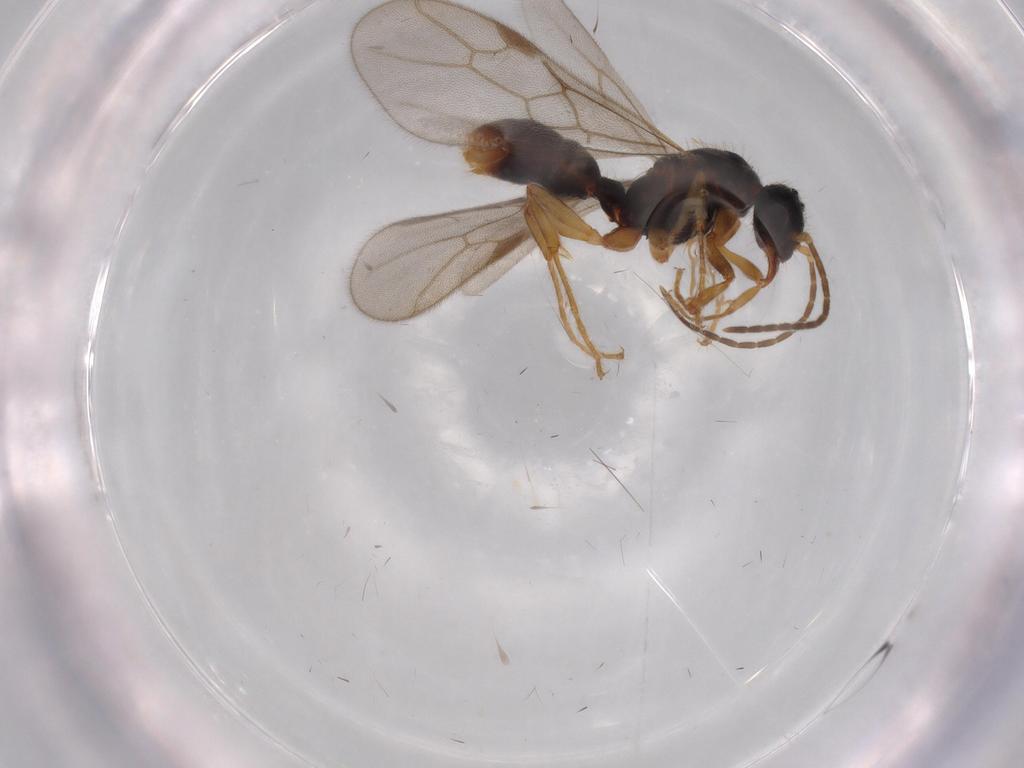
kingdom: Animalia
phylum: Arthropoda
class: Insecta
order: Hymenoptera
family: Formicidae
